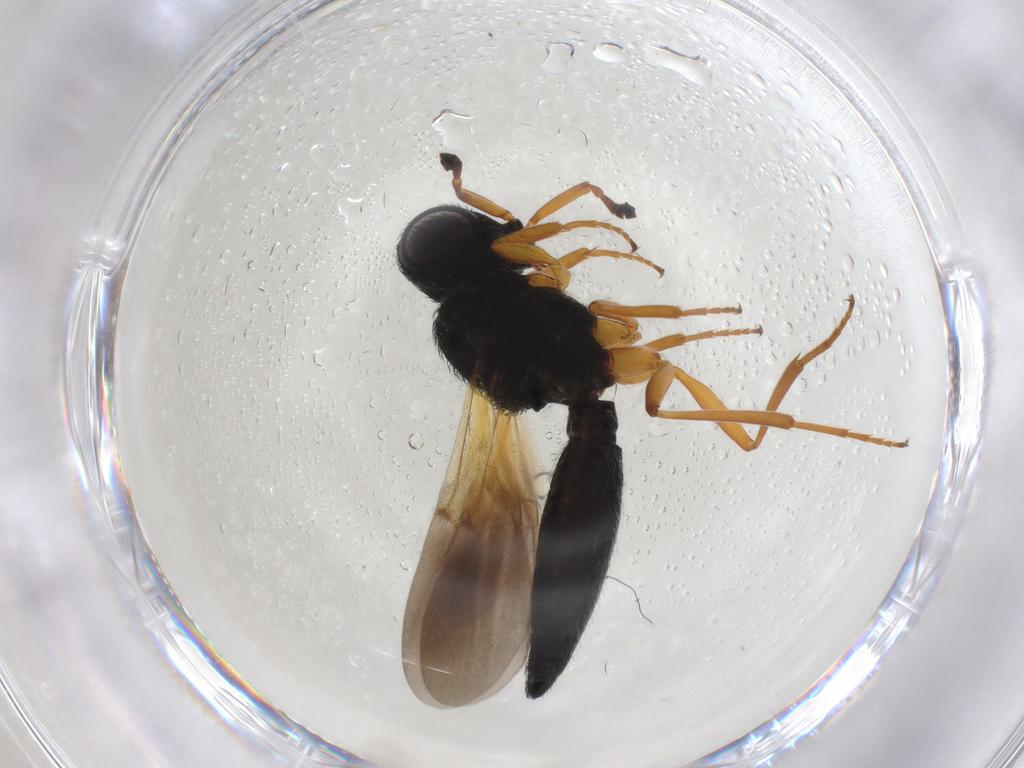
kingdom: Animalia
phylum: Arthropoda
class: Insecta
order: Hymenoptera
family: Scelionidae
